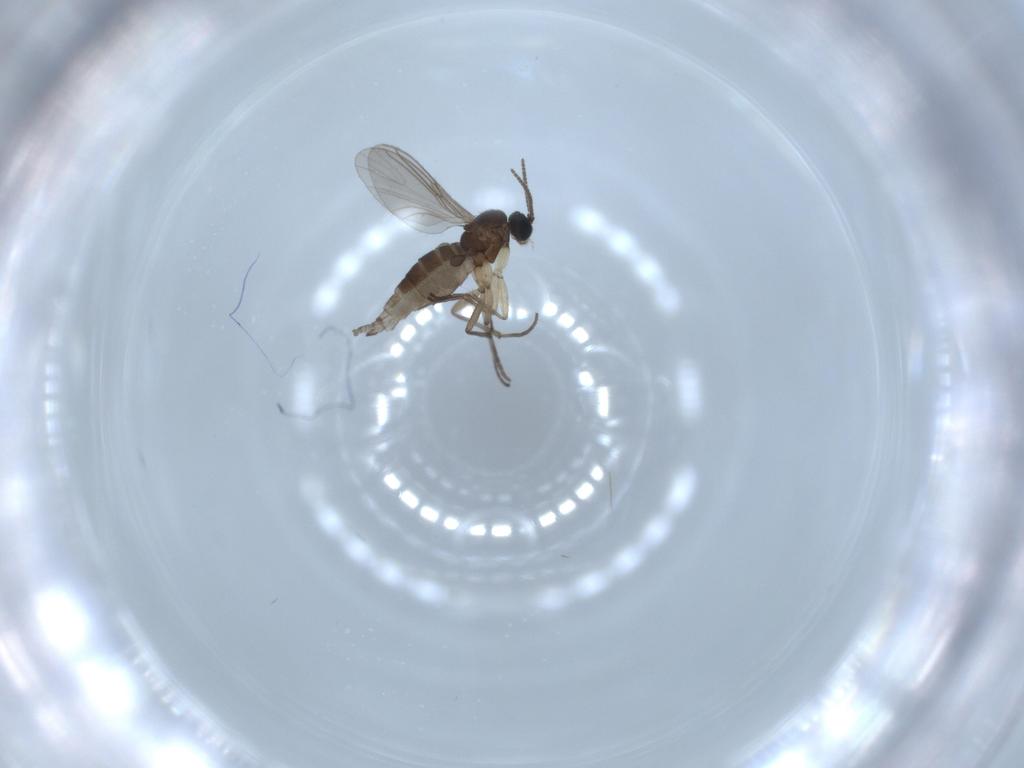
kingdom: Animalia
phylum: Arthropoda
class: Insecta
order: Diptera
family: Sciaridae
